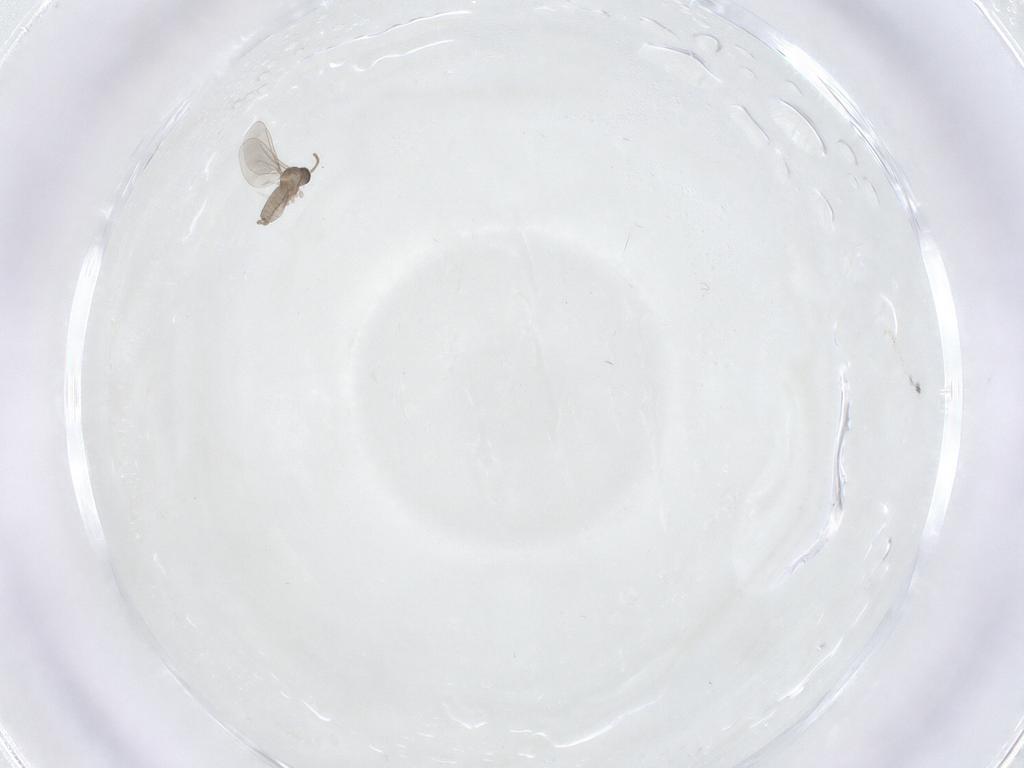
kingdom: Animalia
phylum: Arthropoda
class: Insecta
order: Diptera
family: Cecidomyiidae
